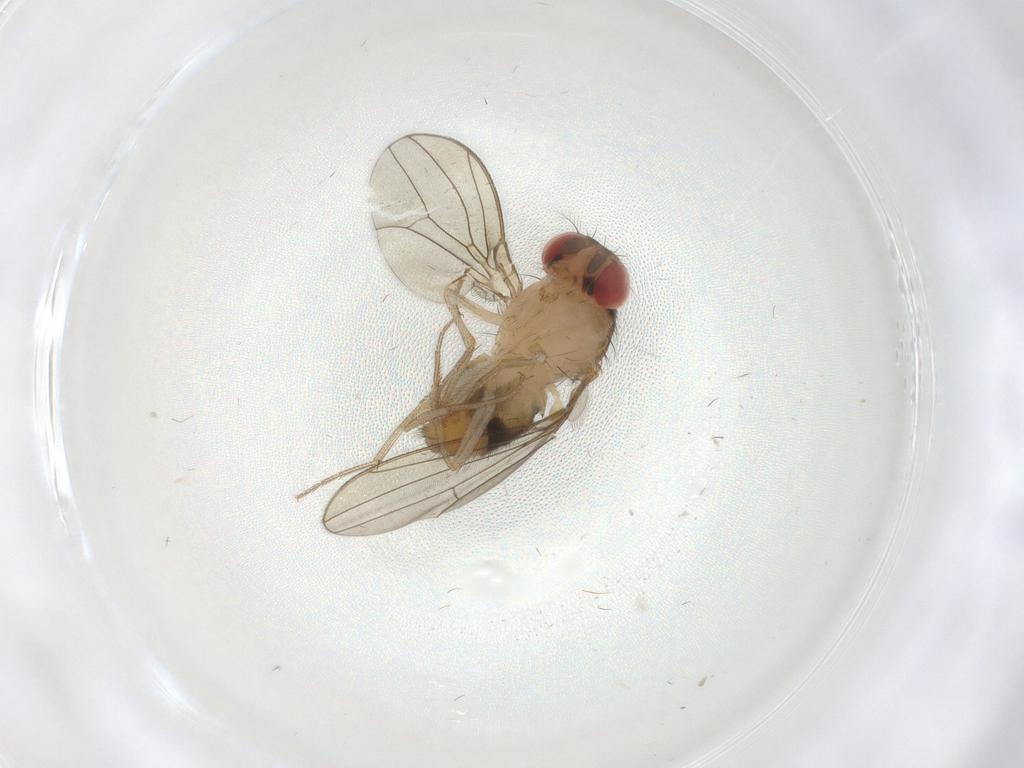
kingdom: Animalia
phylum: Arthropoda
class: Insecta
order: Diptera
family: Drosophilidae
